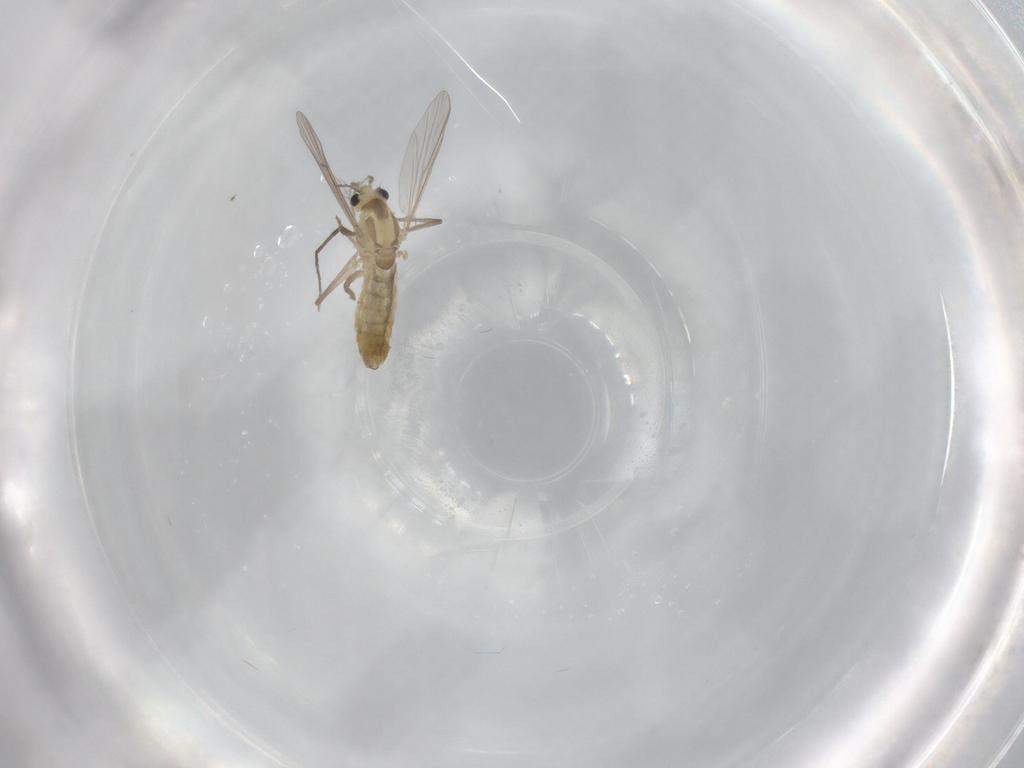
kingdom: Animalia
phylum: Arthropoda
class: Insecta
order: Diptera
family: Chironomidae
